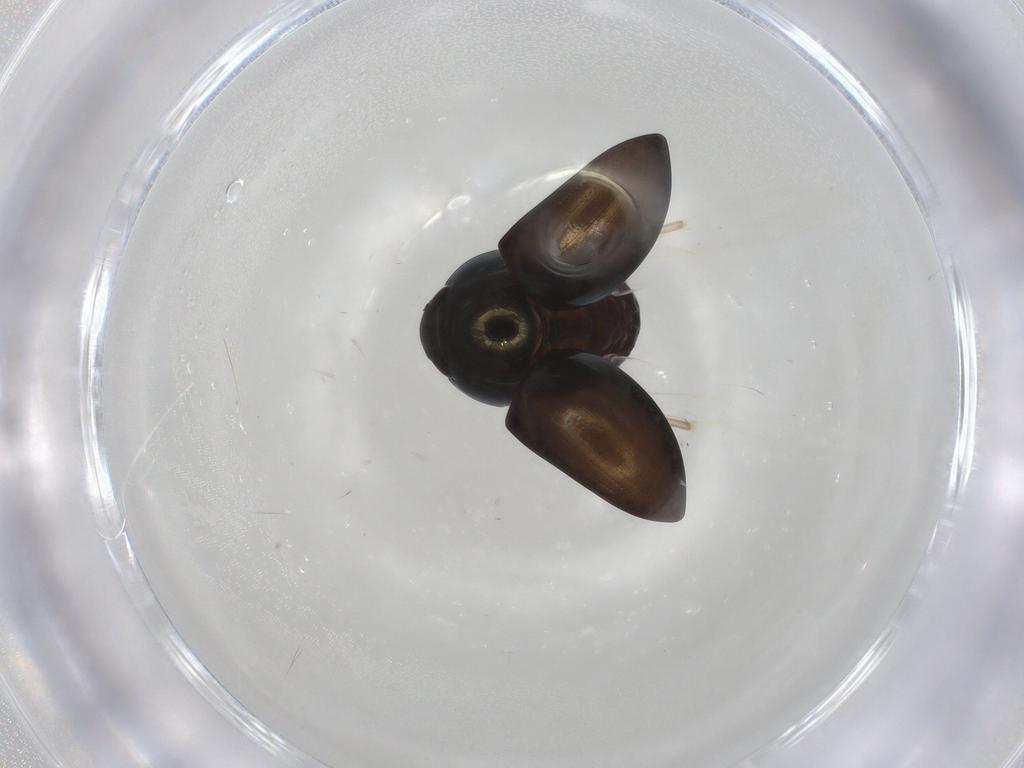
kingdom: Animalia
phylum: Arthropoda
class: Insecta
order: Coleoptera
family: Phalacridae
